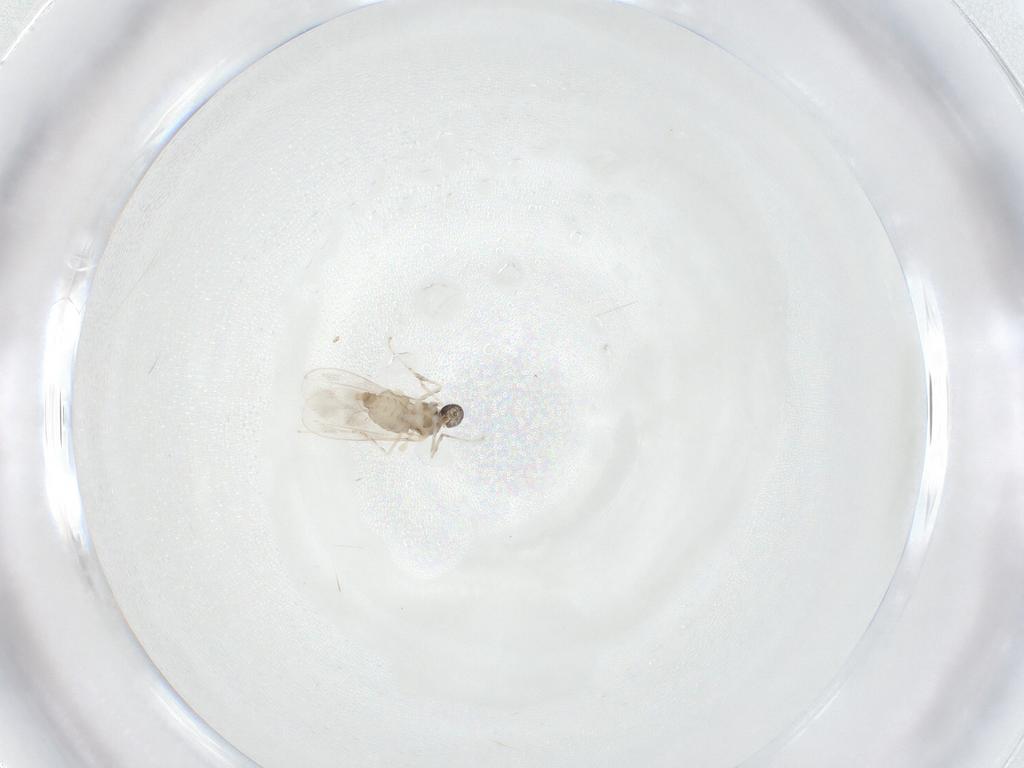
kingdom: Animalia
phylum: Arthropoda
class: Insecta
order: Diptera
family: Cecidomyiidae
